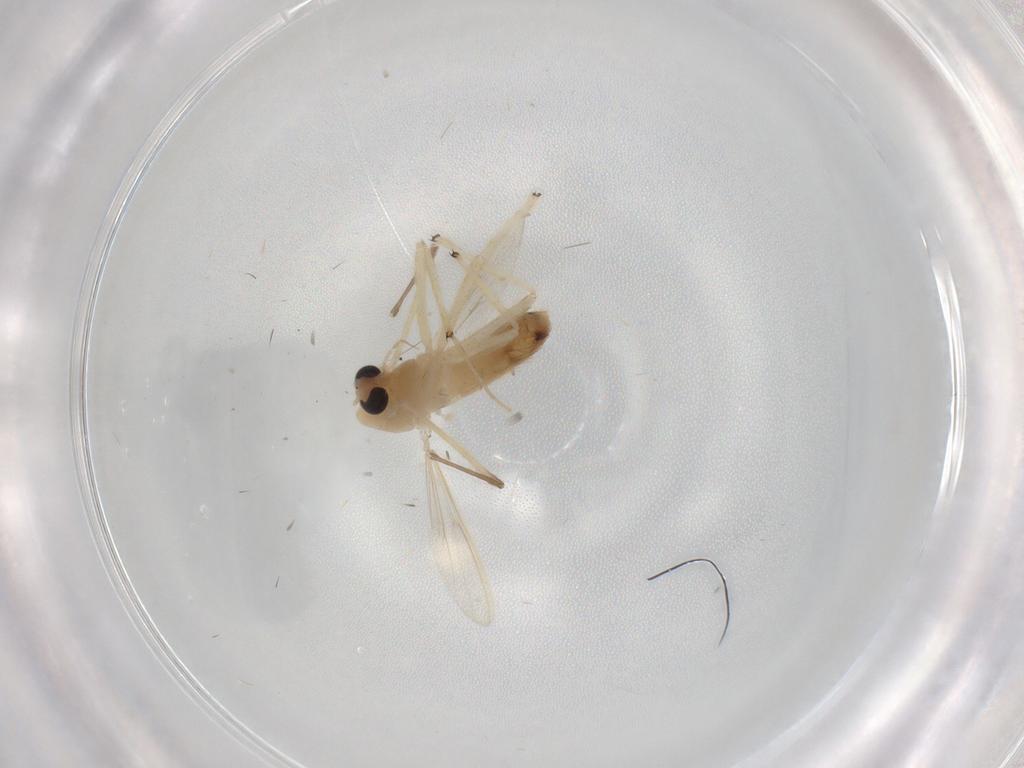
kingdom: Animalia
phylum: Arthropoda
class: Insecta
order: Diptera
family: Chironomidae
